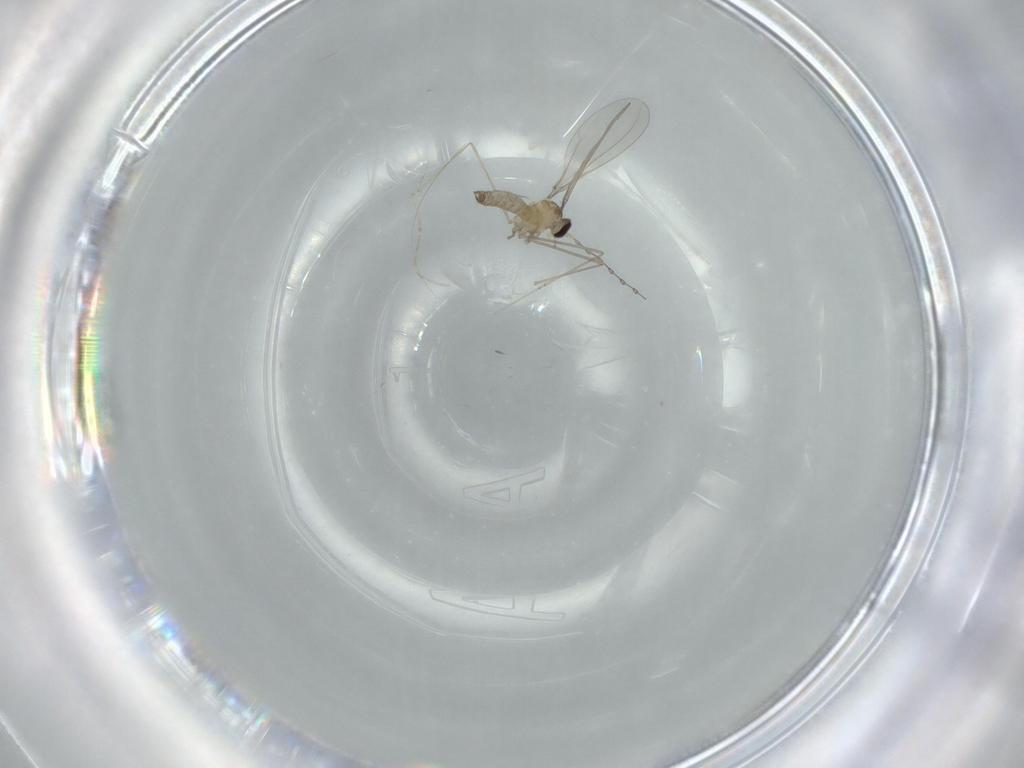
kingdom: Animalia
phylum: Arthropoda
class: Insecta
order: Diptera
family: Cecidomyiidae
